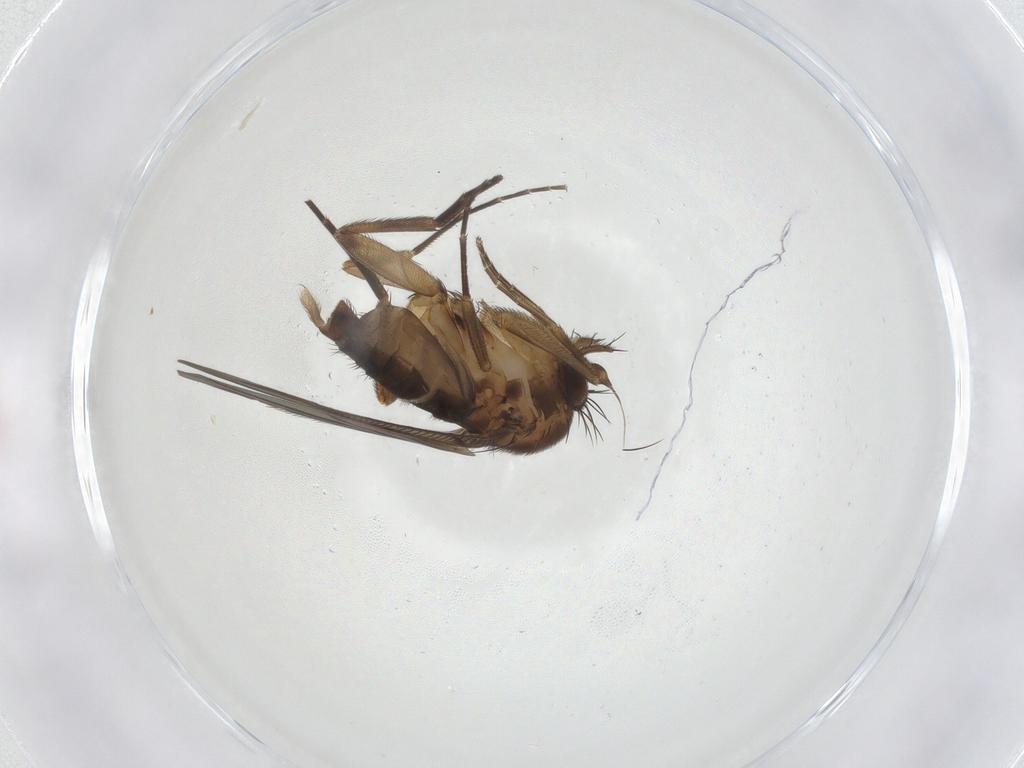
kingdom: Animalia
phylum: Arthropoda
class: Insecta
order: Diptera
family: Phoridae
